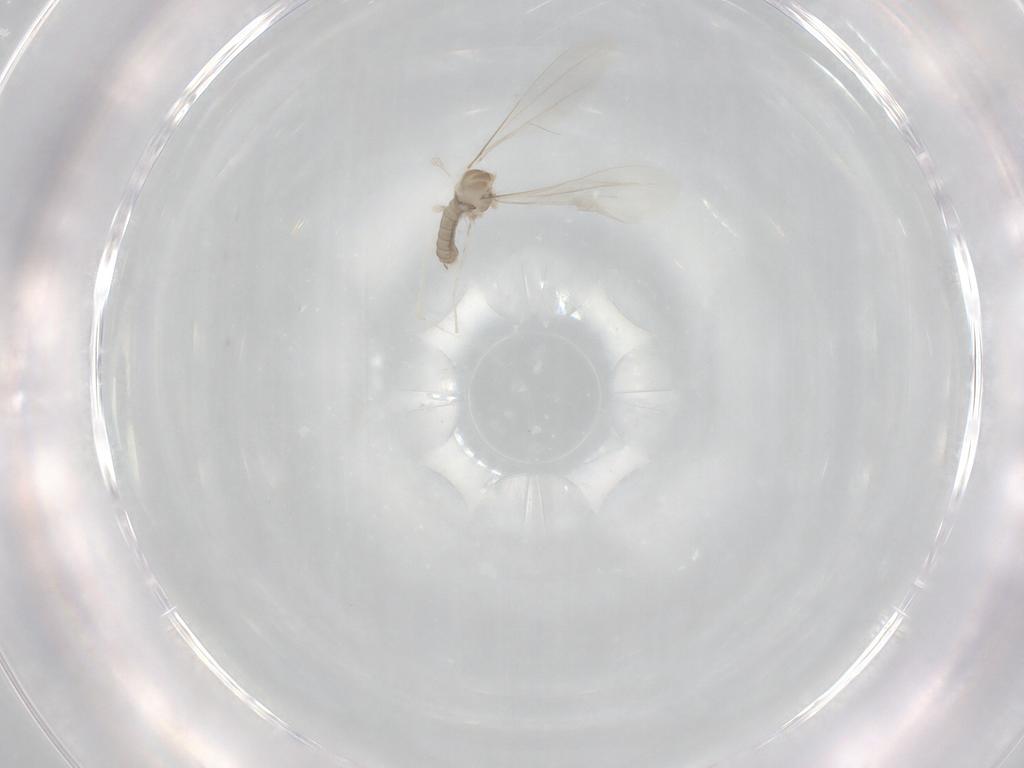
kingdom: Animalia
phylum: Arthropoda
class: Insecta
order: Diptera
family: Cecidomyiidae
